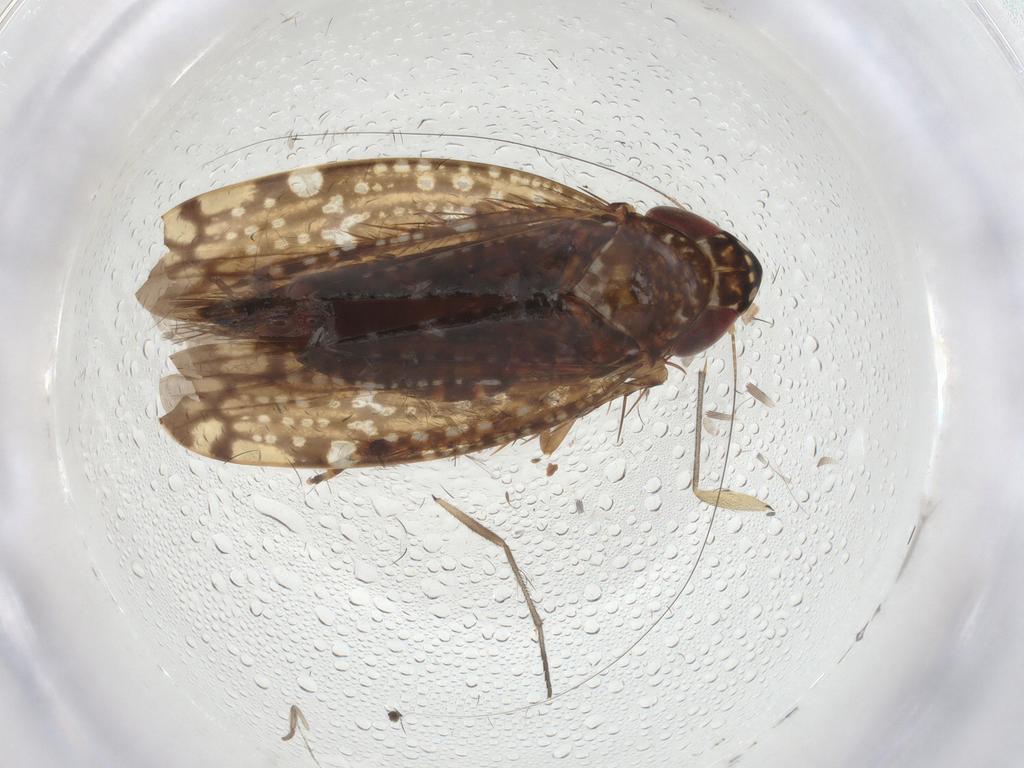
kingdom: Animalia
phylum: Arthropoda
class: Insecta
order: Hemiptera
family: Cicadellidae
